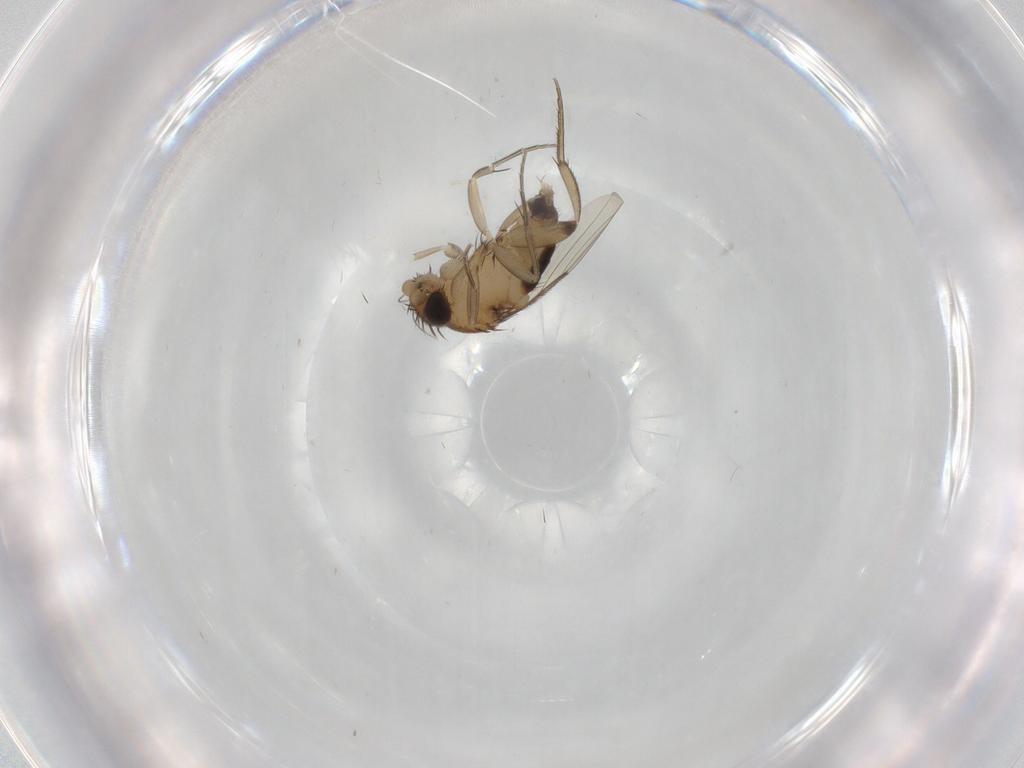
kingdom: Animalia
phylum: Arthropoda
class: Insecta
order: Diptera
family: Phoridae
